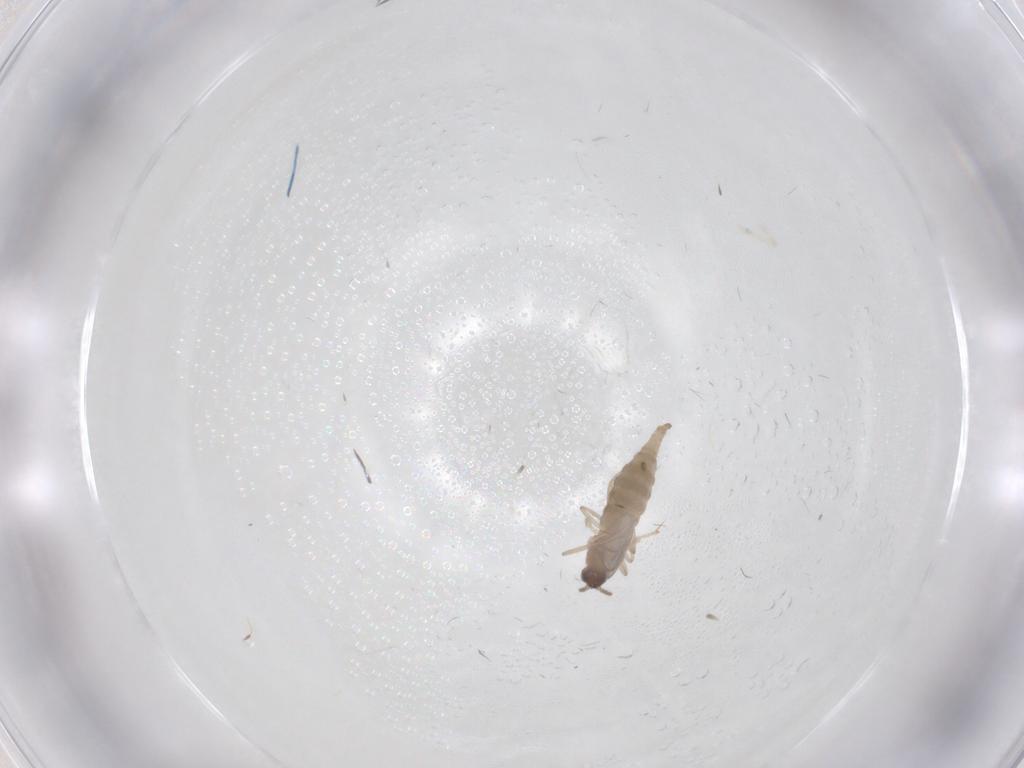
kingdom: Animalia
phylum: Arthropoda
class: Insecta
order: Diptera
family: Cecidomyiidae
